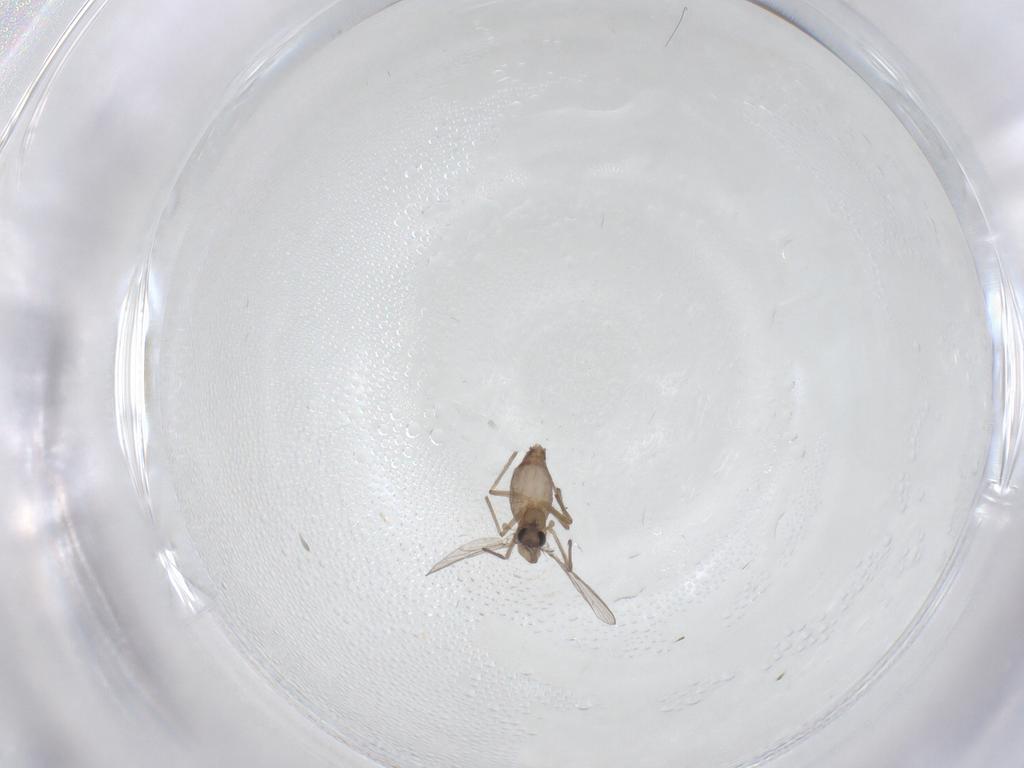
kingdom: Animalia
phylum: Arthropoda
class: Insecta
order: Diptera
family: Chironomidae
